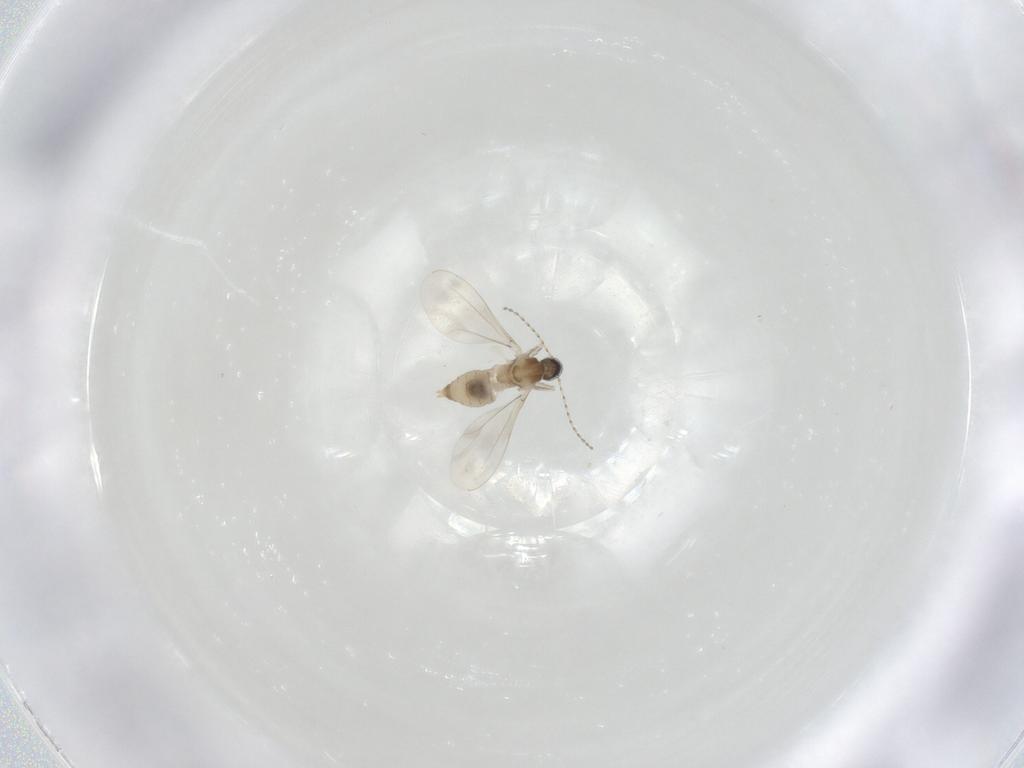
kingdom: Animalia
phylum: Arthropoda
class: Insecta
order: Diptera
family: Cecidomyiidae
